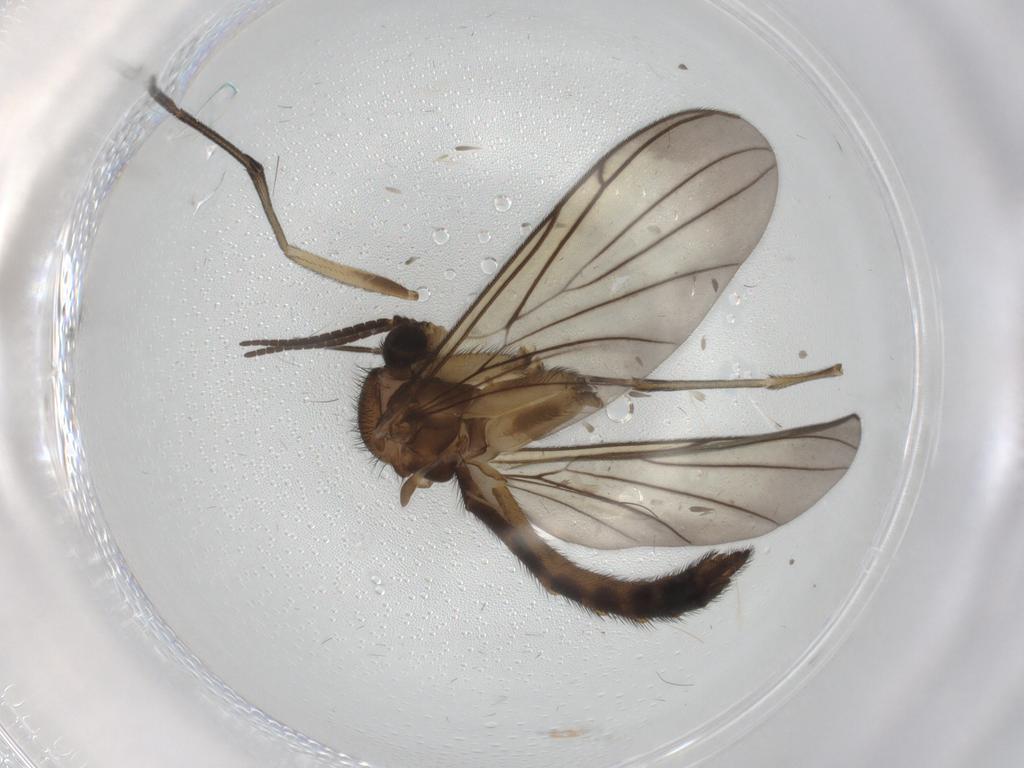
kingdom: Animalia
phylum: Arthropoda
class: Insecta
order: Diptera
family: Keroplatidae
